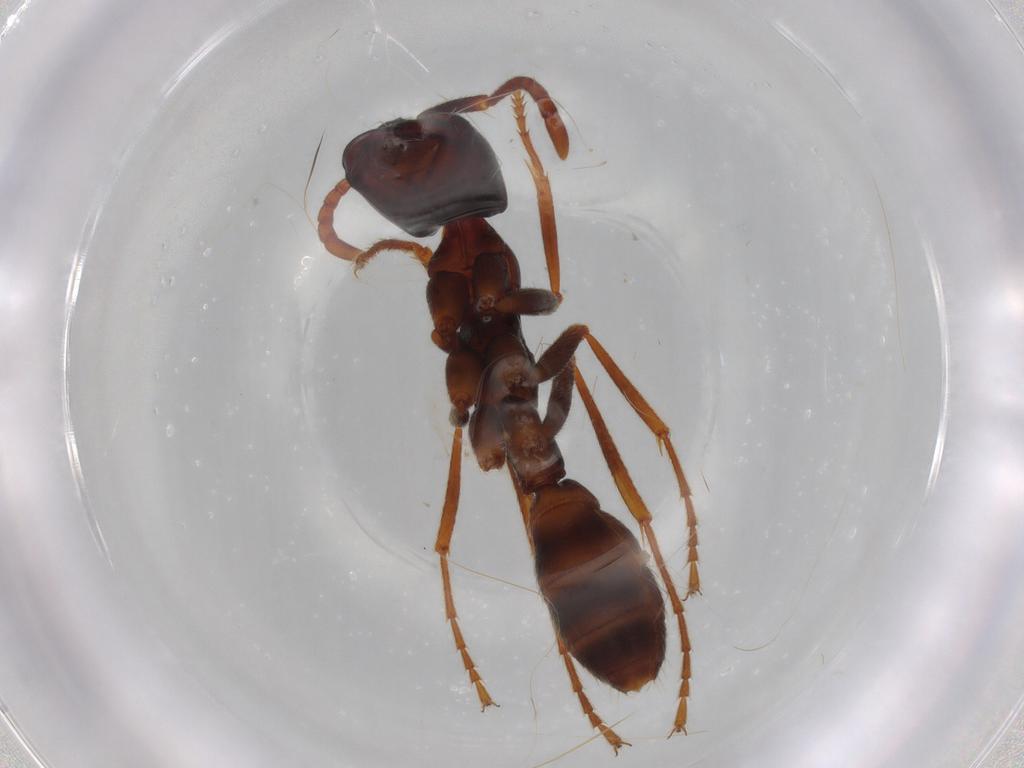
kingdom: Animalia
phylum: Arthropoda
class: Insecta
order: Hymenoptera
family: Formicidae
